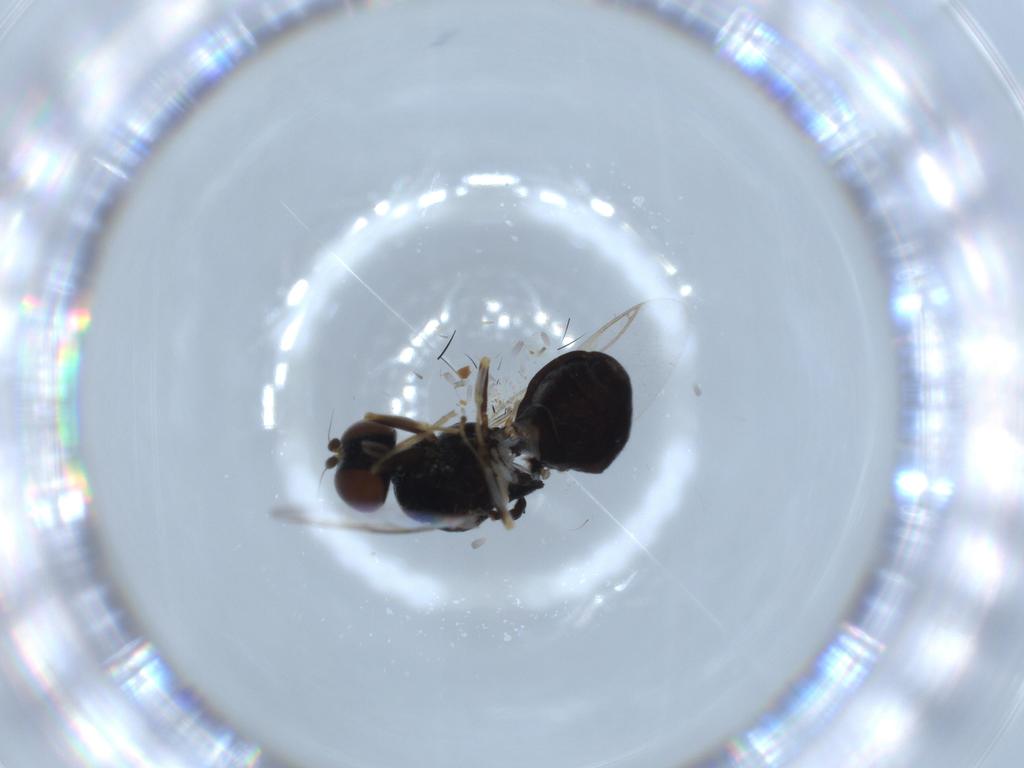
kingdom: Animalia
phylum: Arthropoda
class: Insecta
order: Diptera
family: Stratiomyidae
